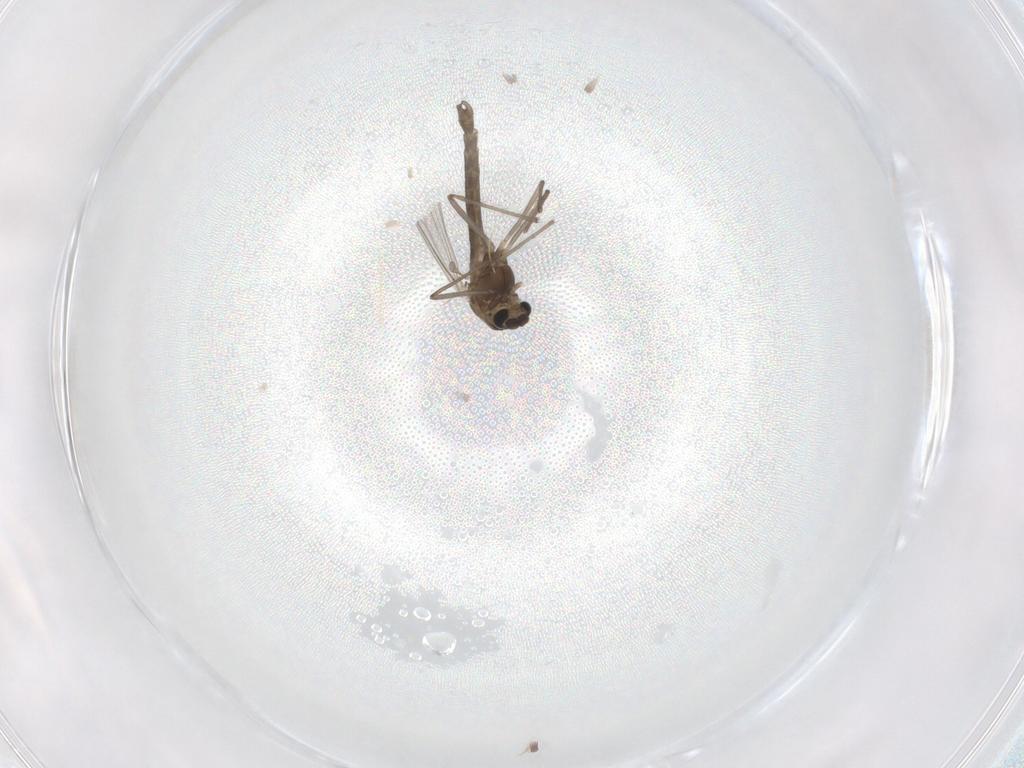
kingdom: Animalia
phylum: Arthropoda
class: Insecta
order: Diptera
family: Chironomidae
